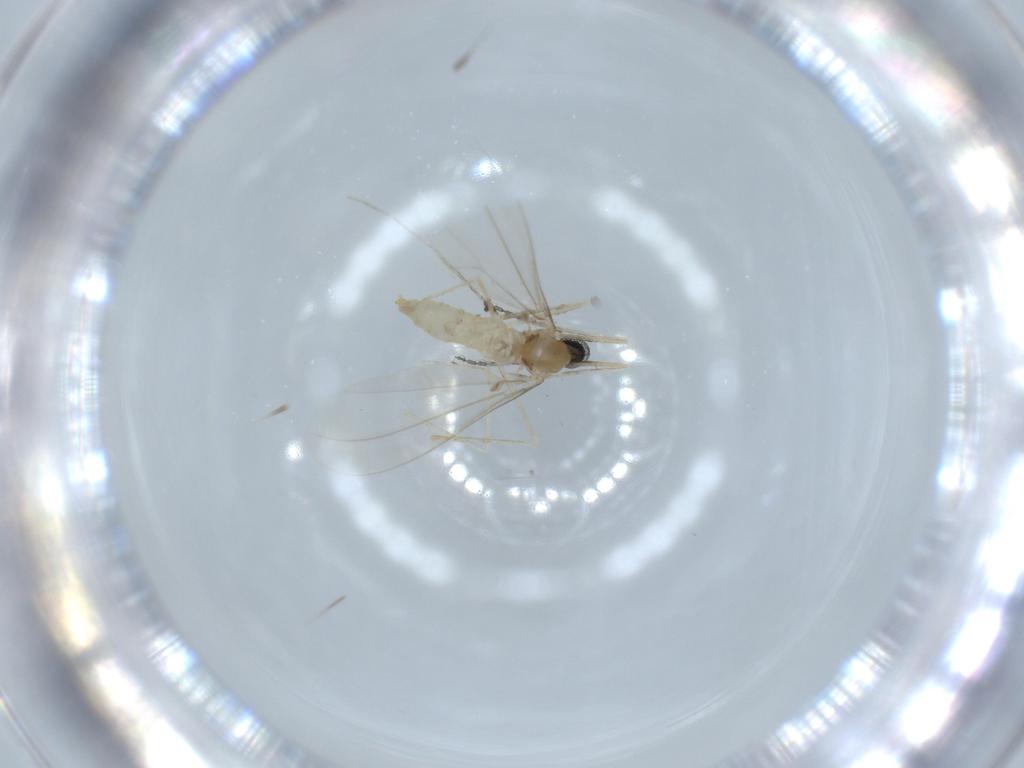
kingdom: Animalia
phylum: Arthropoda
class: Insecta
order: Diptera
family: Cecidomyiidae
